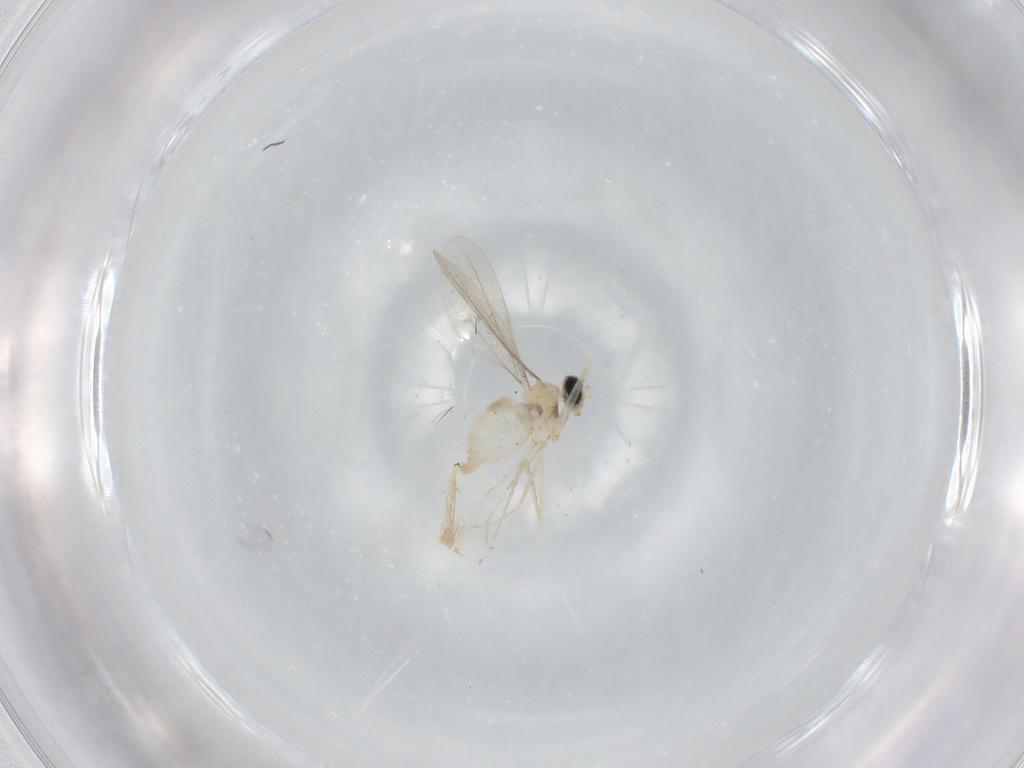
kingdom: Animalia
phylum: Arthropoda
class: Insecta
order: Diptera
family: Cecidomyiidae
